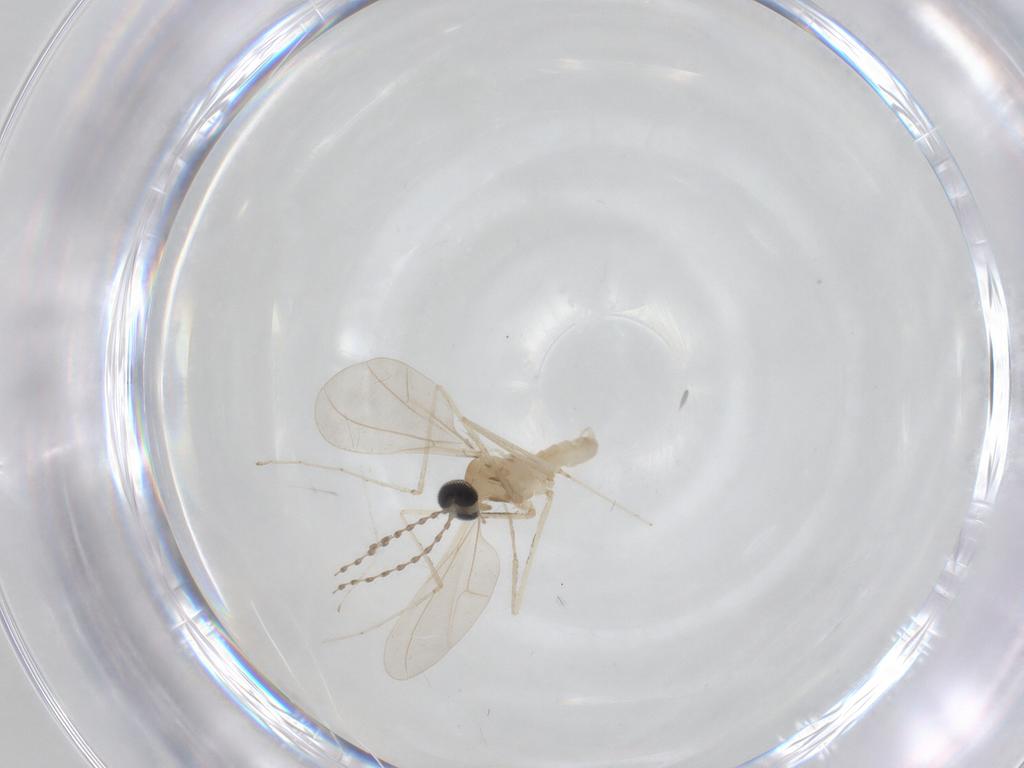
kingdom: Animalia
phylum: Arthropoda
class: Insecta
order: Diptera
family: Cecidomyiidae
